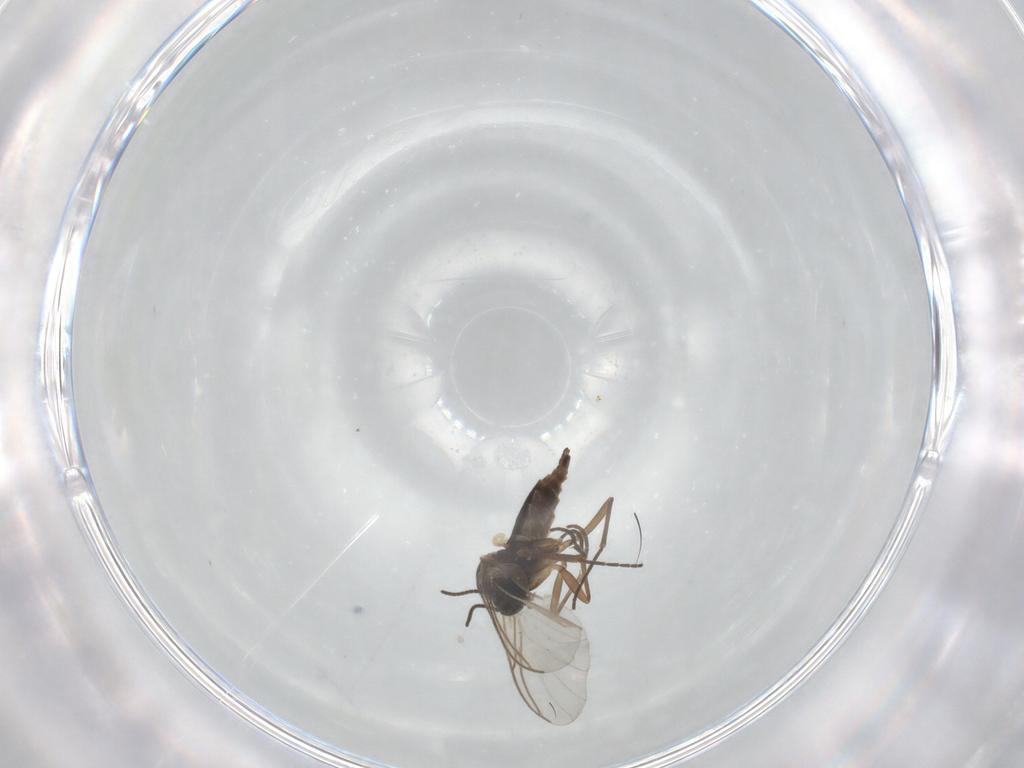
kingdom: Animalia
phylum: Arthropoda
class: Insecta
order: Diptera
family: Sciaridae
